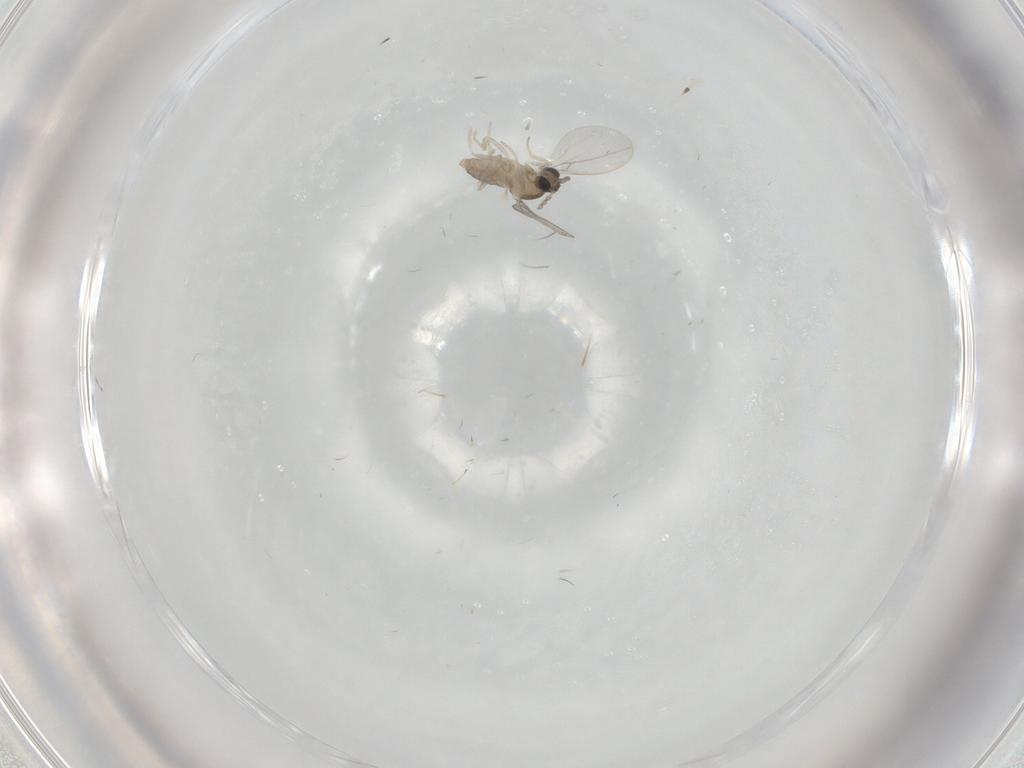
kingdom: Animalia
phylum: Arthropoda
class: Insecta
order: Diptera
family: Cecidomyiidae
